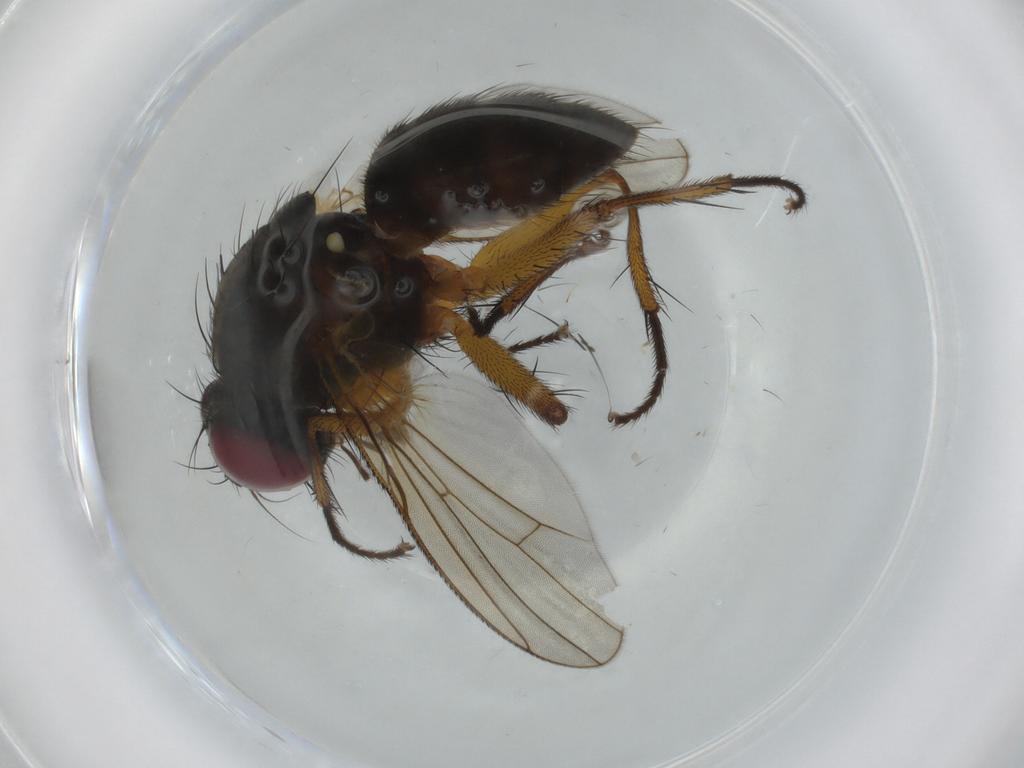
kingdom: Animalia
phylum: Arthropoda
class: Insecta
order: Diptera
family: Muscidae
